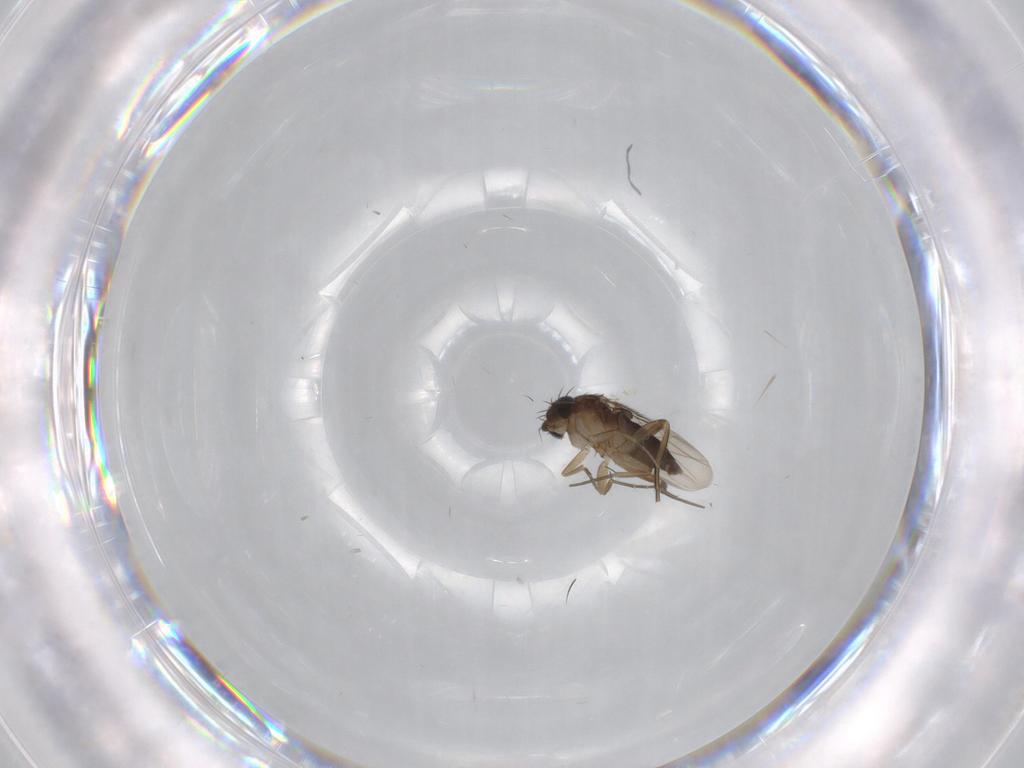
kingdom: Animalia
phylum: Arthropoda
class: Insecta
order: Diptera
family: Phoridae
